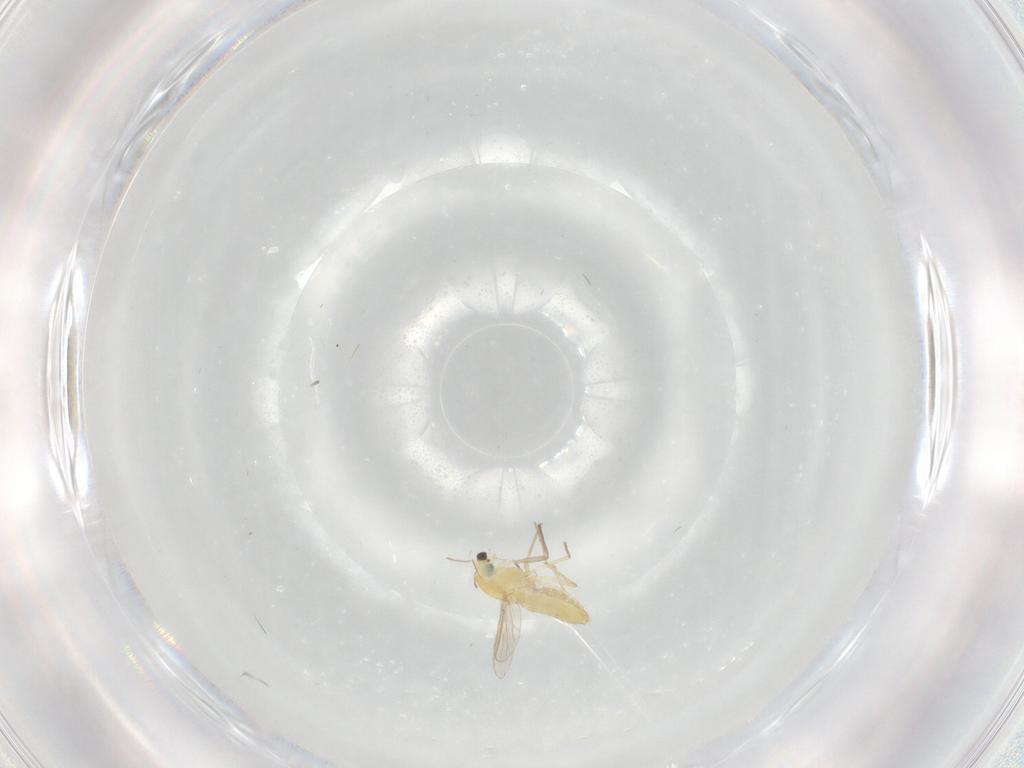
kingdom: Animalia
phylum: Arthropoda
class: Insecta
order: Diptera
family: Chironomidae
